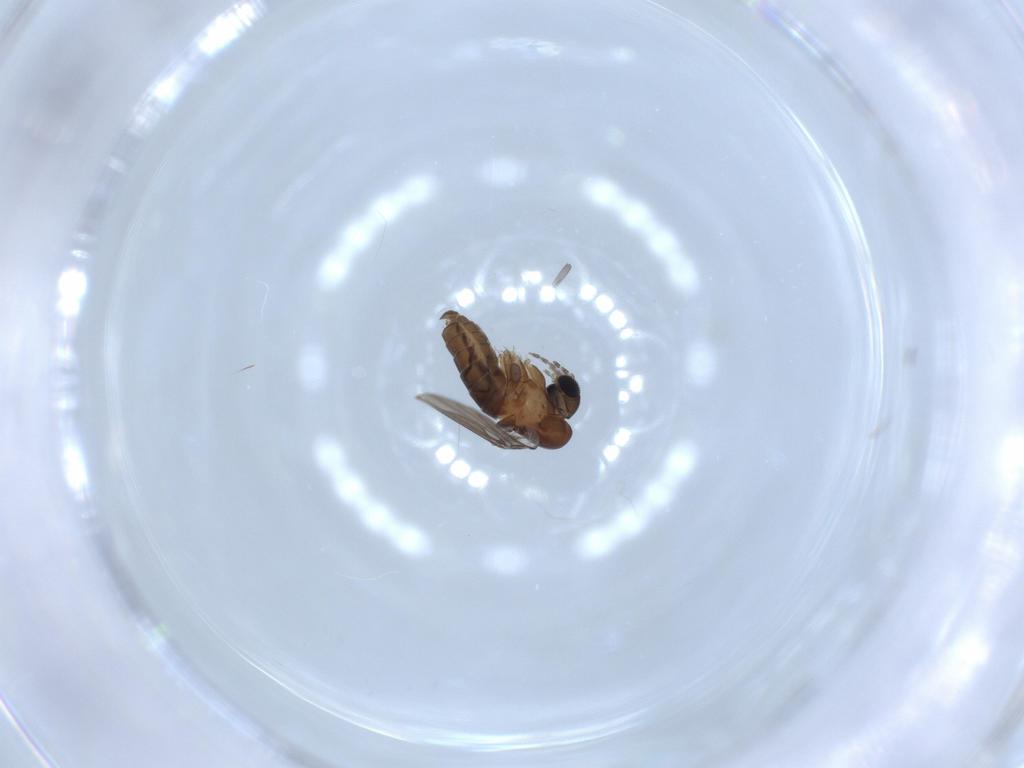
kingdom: Animalia
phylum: Arthropoda
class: Insecta
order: Diptera
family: Psychodidae
